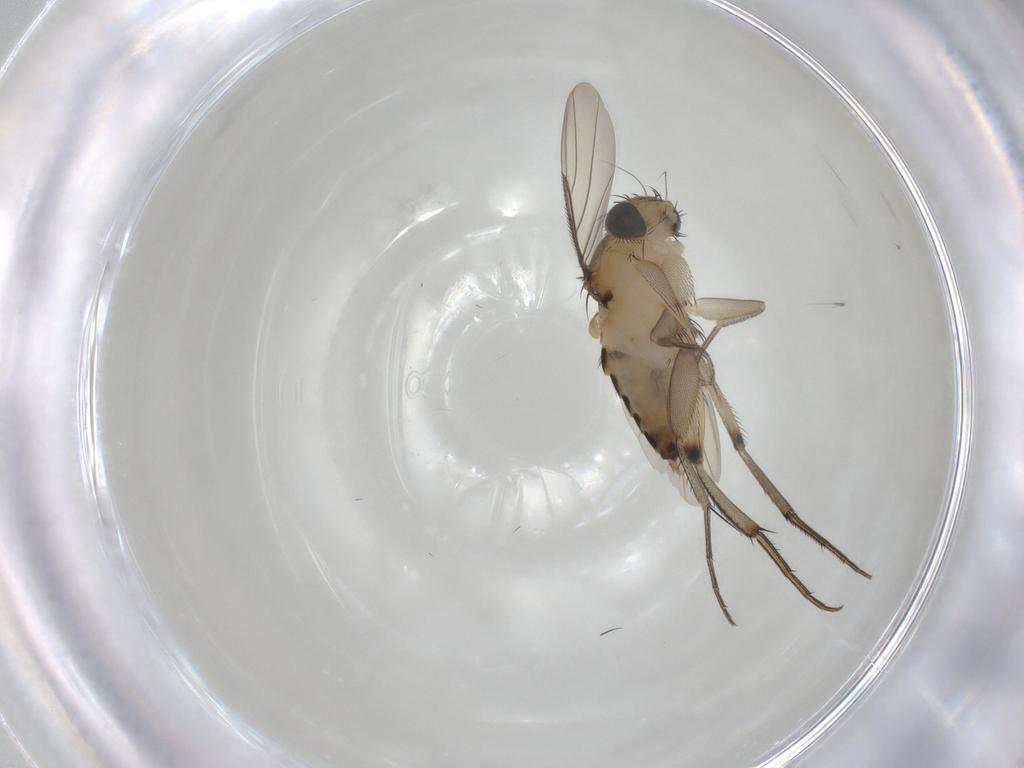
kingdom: Animalia
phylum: Arthropoda
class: Insecta
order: Diptera
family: Phoridae
